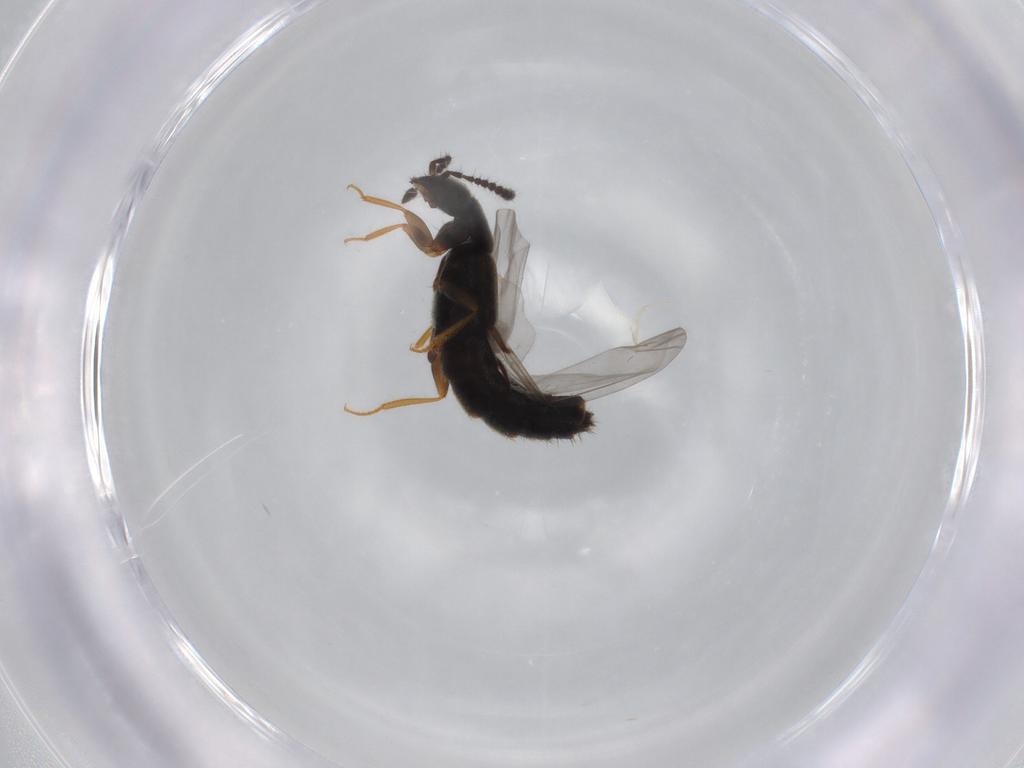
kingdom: Animalia
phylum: Arthropoda
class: Insecta
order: Coleoptera
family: Staphylinidae
